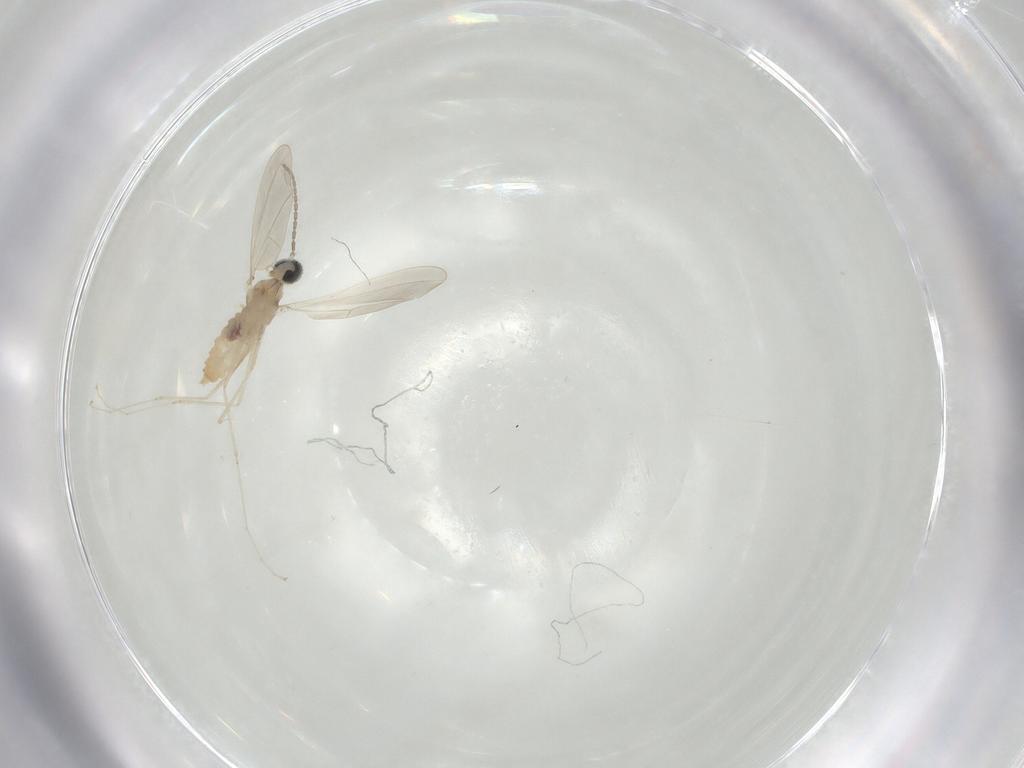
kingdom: Animalia
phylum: Arthropoda
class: Insecta
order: Diptera
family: Cecidomyiidae
